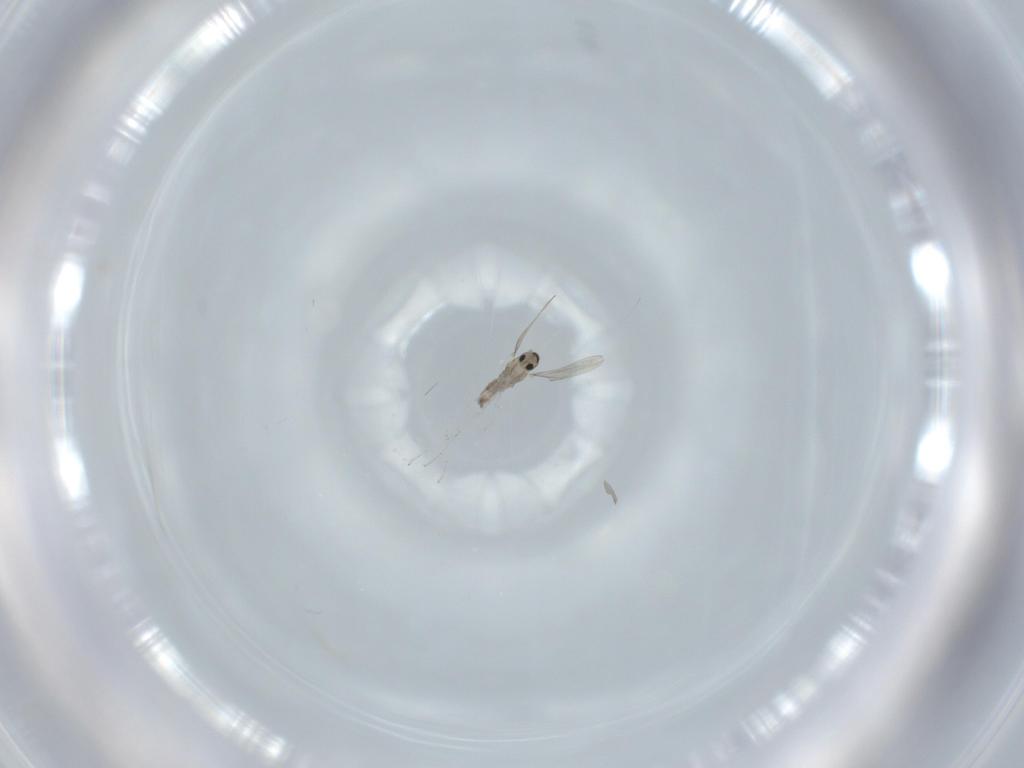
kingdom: Animalia
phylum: Arthropoda
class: Insecta
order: Diptera
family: Cecidomyiidae
